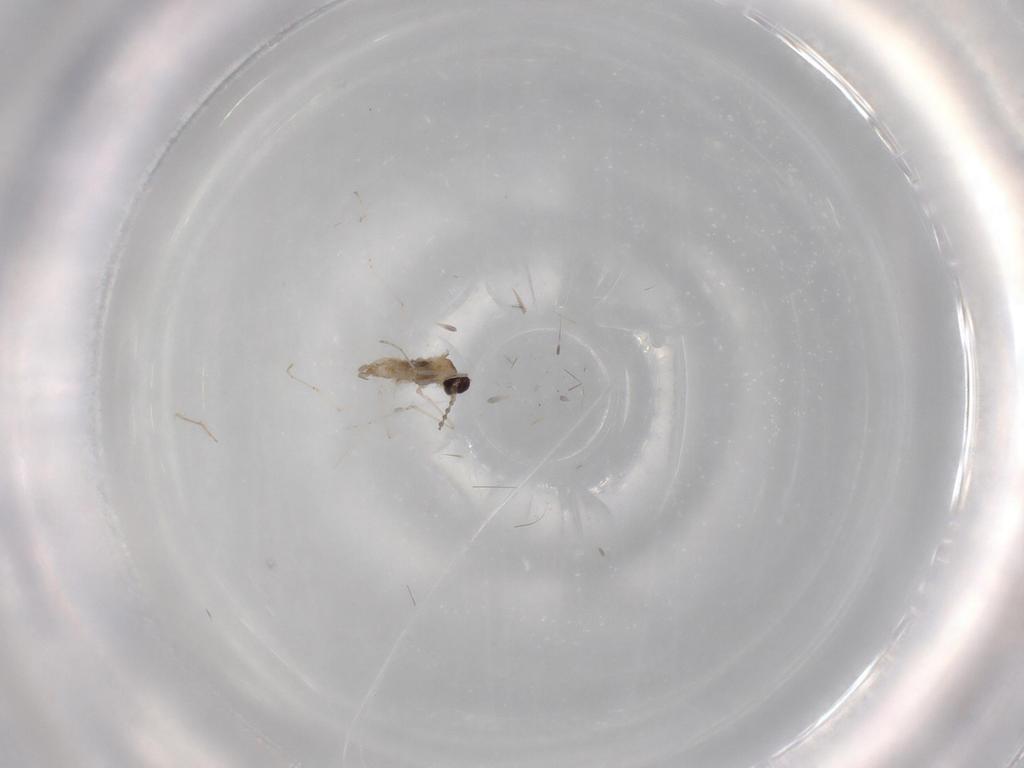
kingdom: Animalia
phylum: Arthropoda
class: Insecta
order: Diptera
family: Cecidomyiidae
